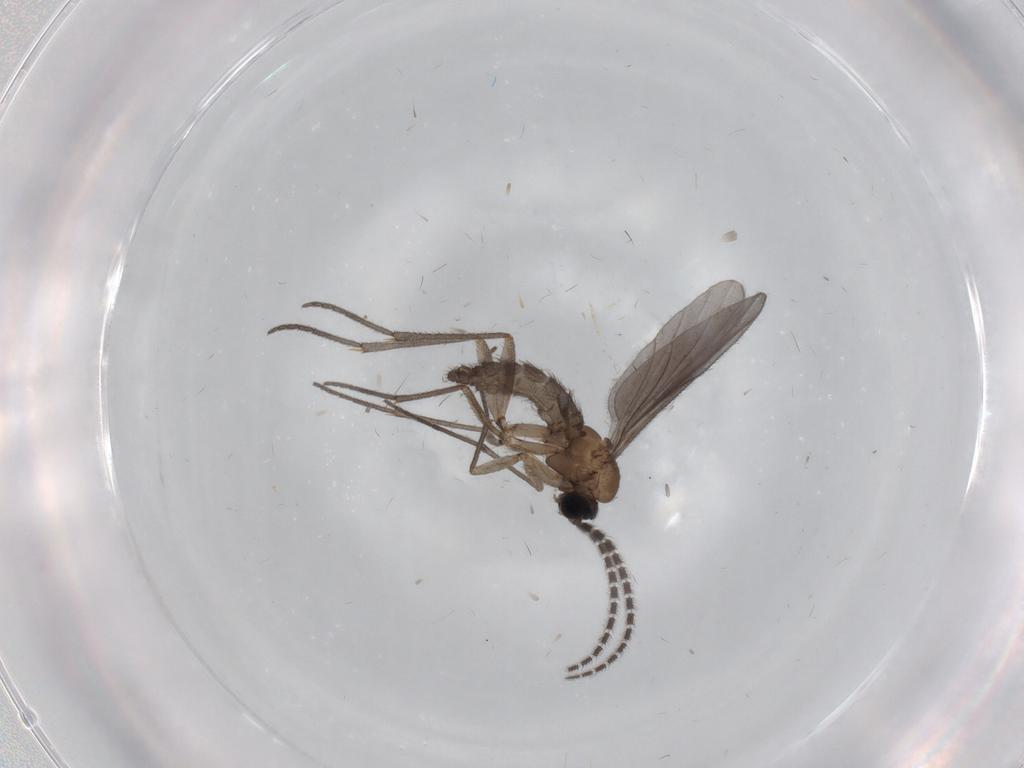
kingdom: Animalia
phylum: Arthropoda
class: Insecta
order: Diptera
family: Sciaridae
